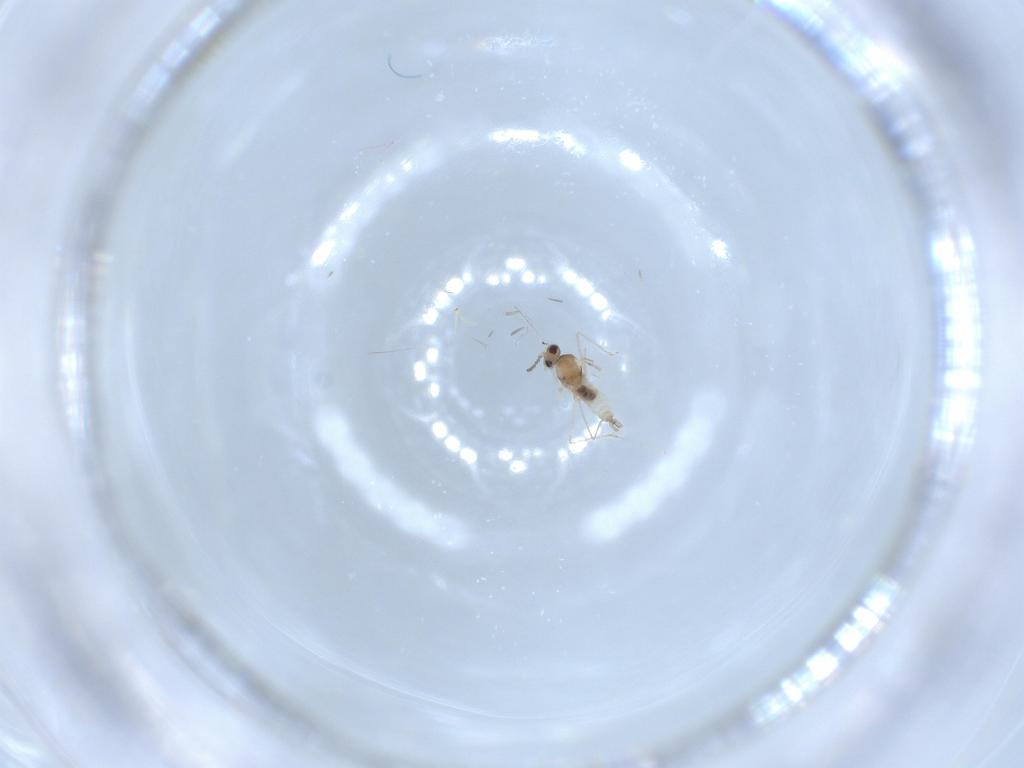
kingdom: Animalia
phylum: Arthropoda
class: Insecta
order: Diptera
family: Cecidomyiidae
